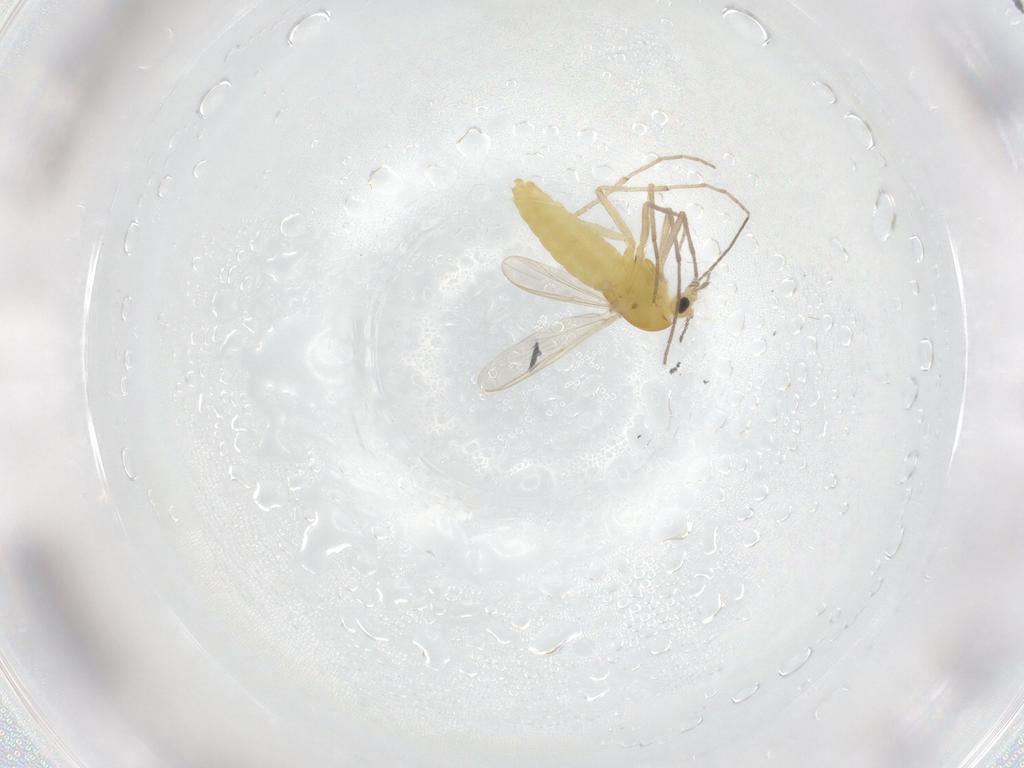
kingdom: Animalia
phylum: Arthropoda
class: Insecta
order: Diptera
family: Chironomidae
